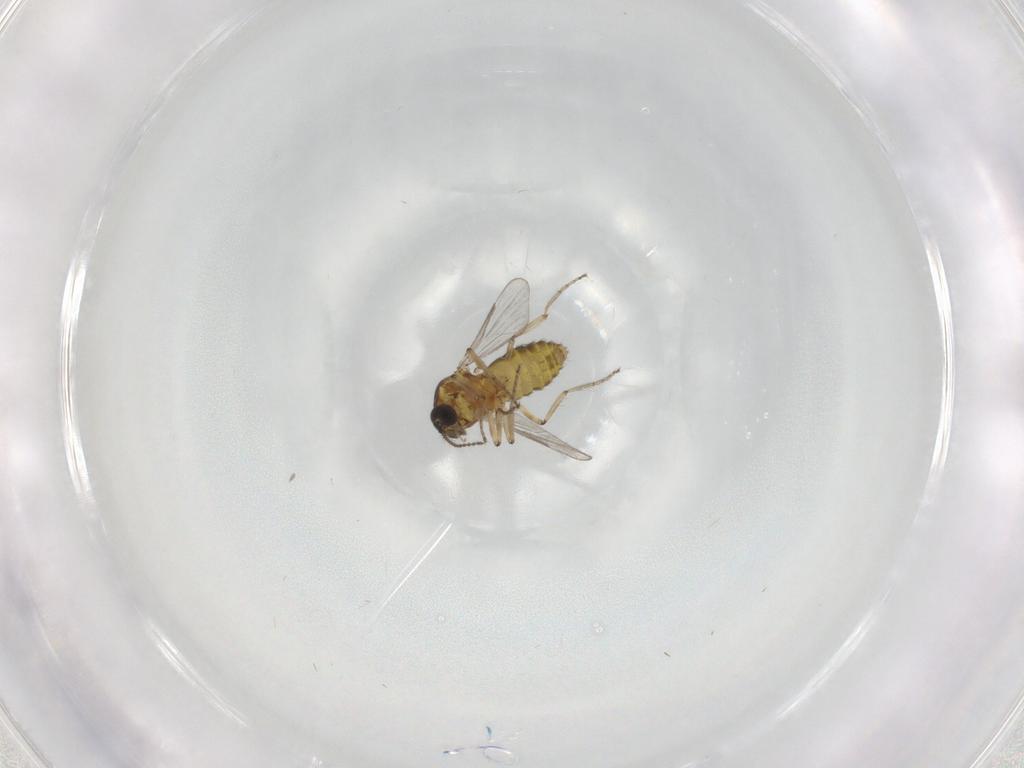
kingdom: Animalia
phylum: Arthropoda
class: Insecta
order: Diptera
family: Ceratopogonidae
